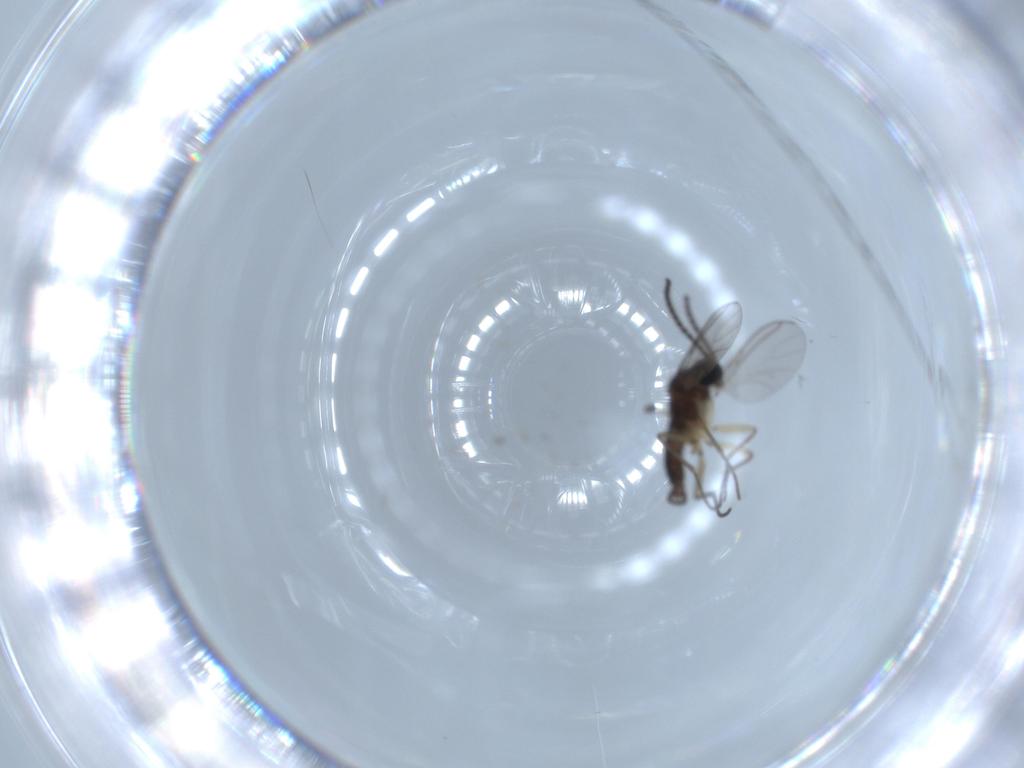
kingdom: Animalia
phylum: Arthropoda
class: Insecta
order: Diptera
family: Sciaridae
